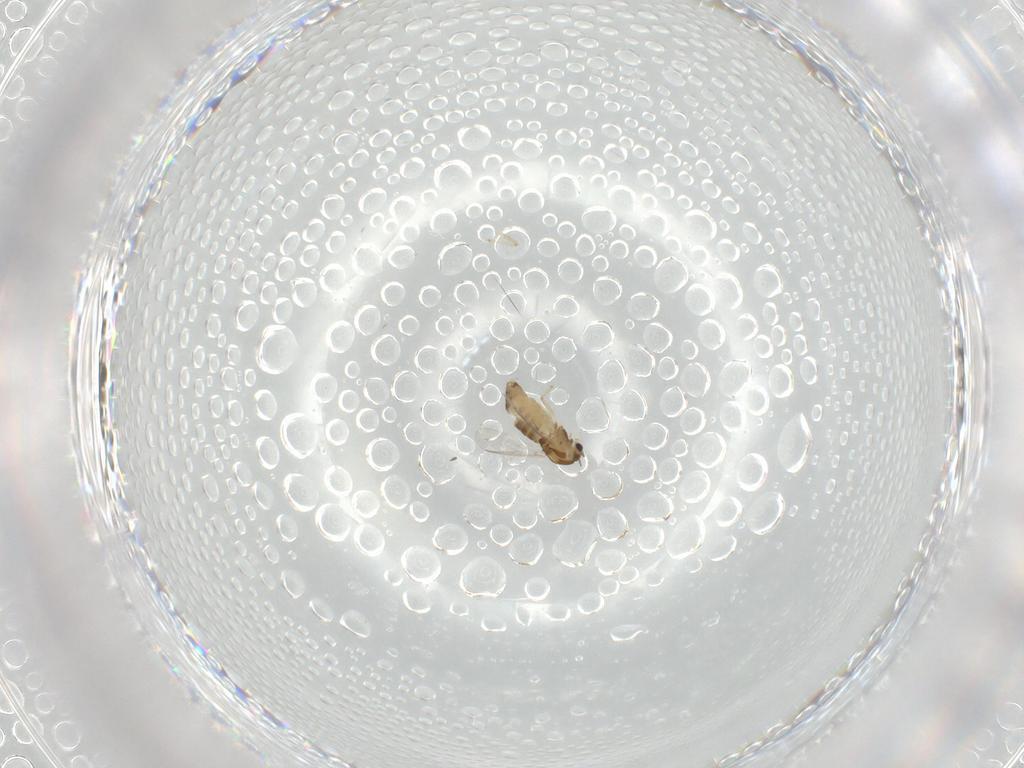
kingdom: Animalia
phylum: Arthropoda
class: Insecta
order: Diptera
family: Chironomidae
